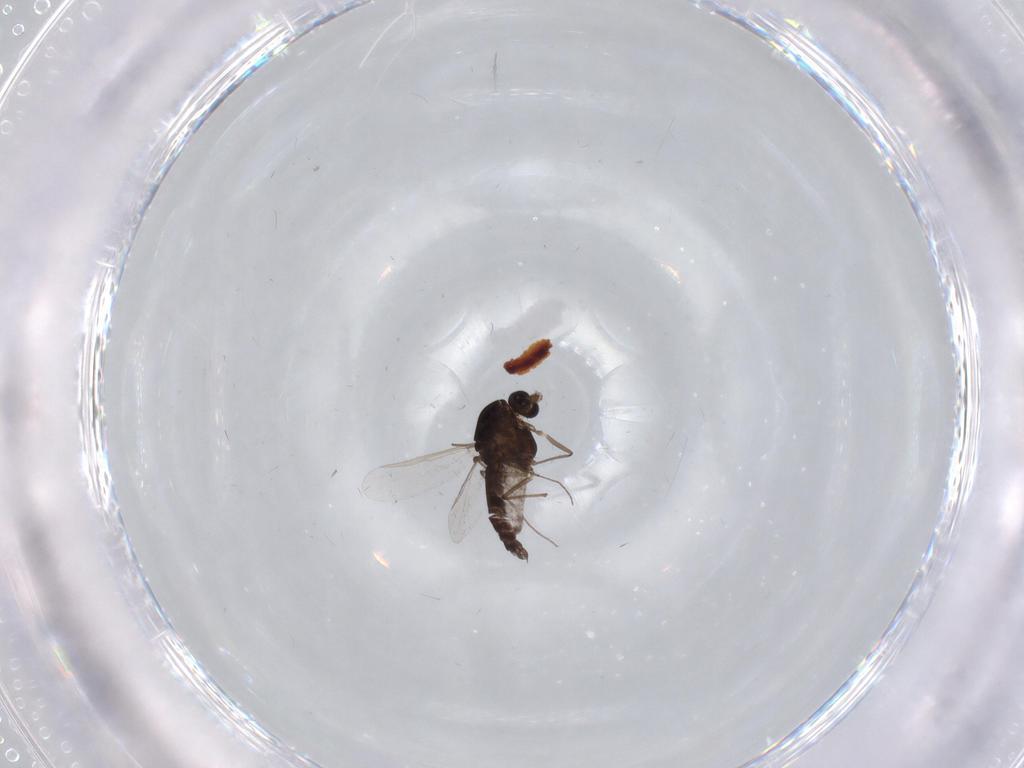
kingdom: Animalia
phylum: Arthropoda
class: Insecta
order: Diptera
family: Chironomidae
